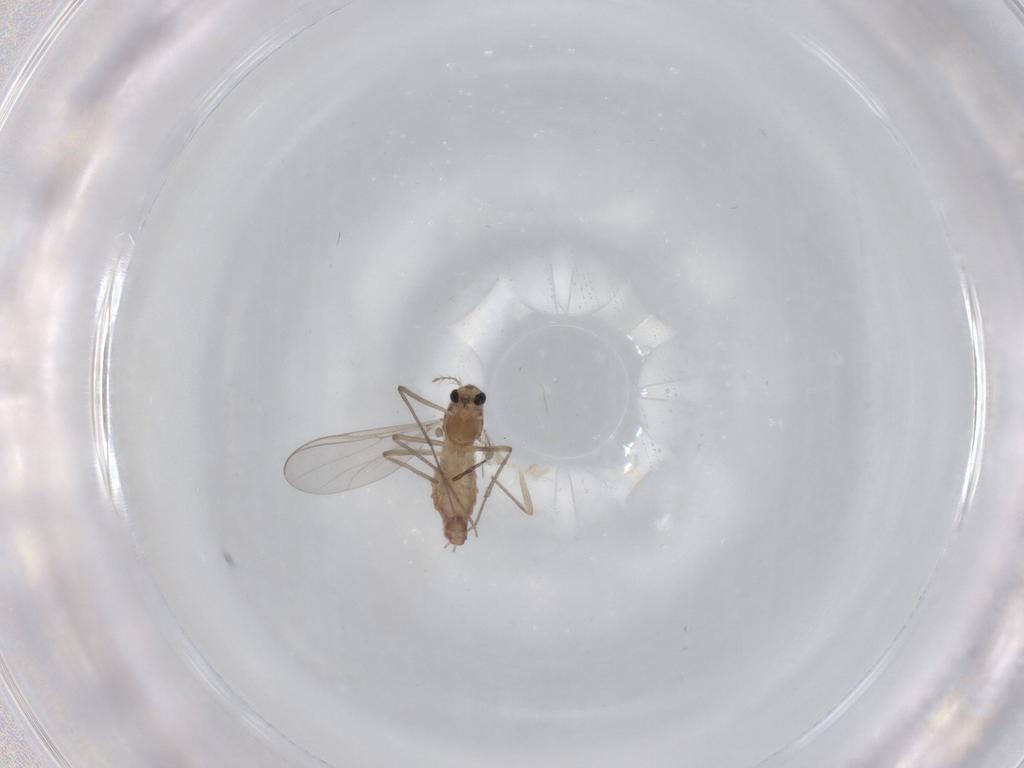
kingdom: Animalia
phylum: Arthropoda
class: Insecta
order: Diptera
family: Chironomidae
